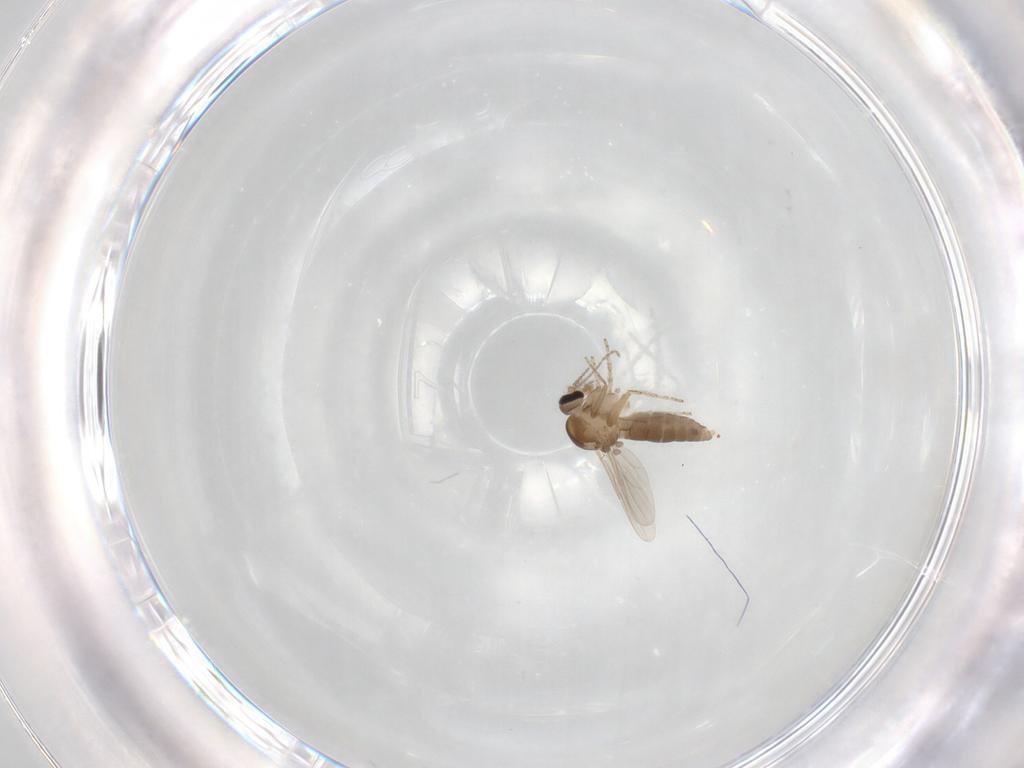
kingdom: Animalia
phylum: Arthropoda
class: Insecta
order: Diptera
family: Ceratopogonidae
